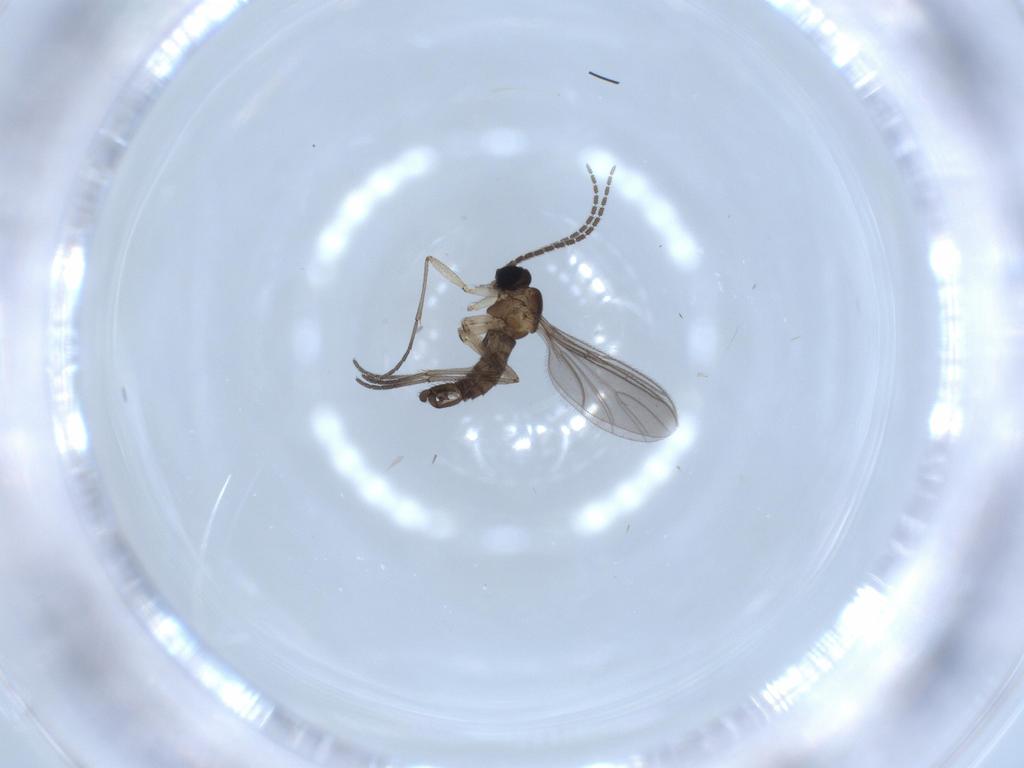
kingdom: Animalia
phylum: Arthropoda
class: Insecta
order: Diptera
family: Sciaridae
